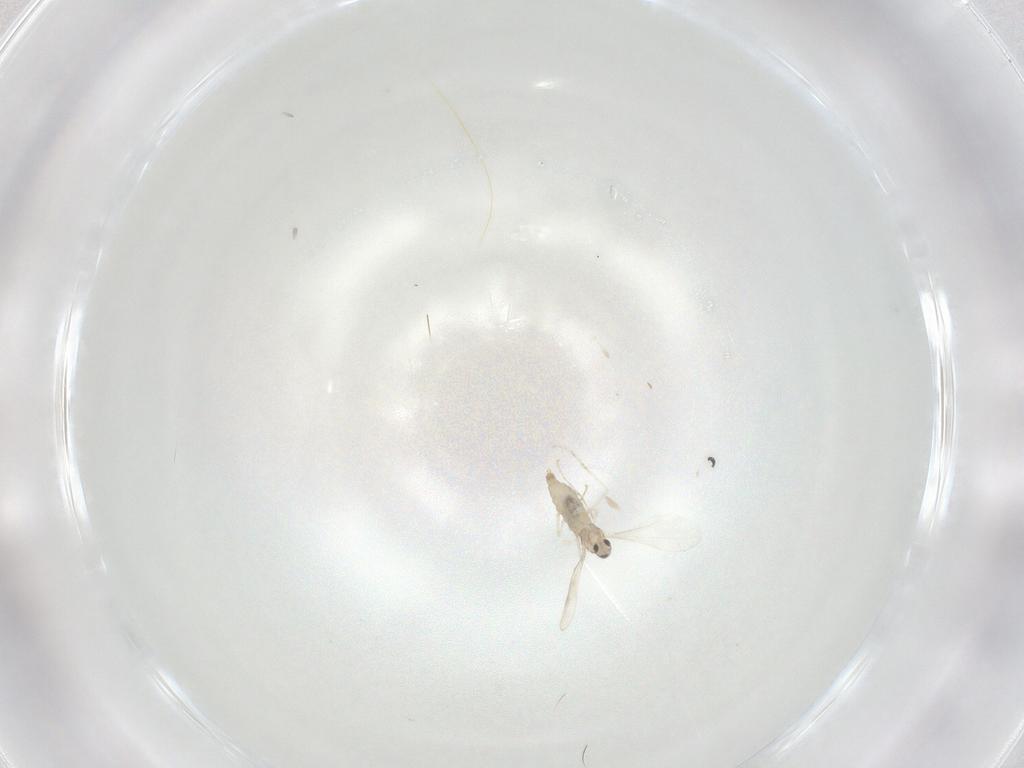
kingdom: Animalia
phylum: Arthropoda
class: Insecta
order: Diptera
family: Cecidomyiidae
